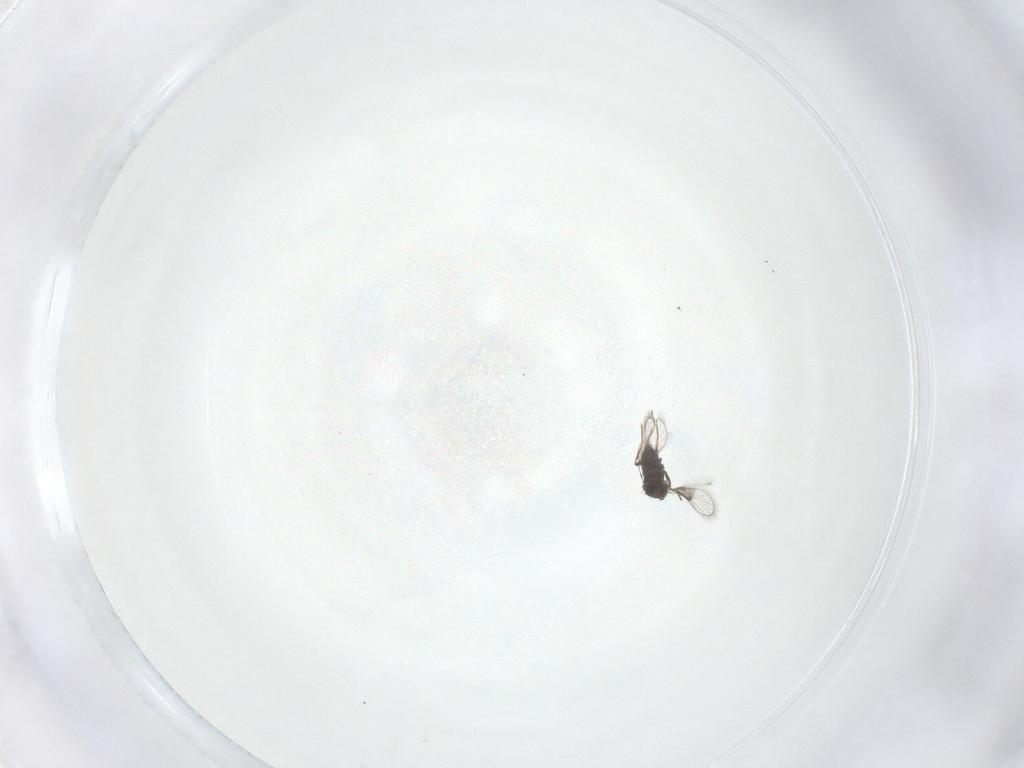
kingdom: Animalia
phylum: Arthropoda
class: Insecta
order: Hymenoptera
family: Trichogrammatidae
